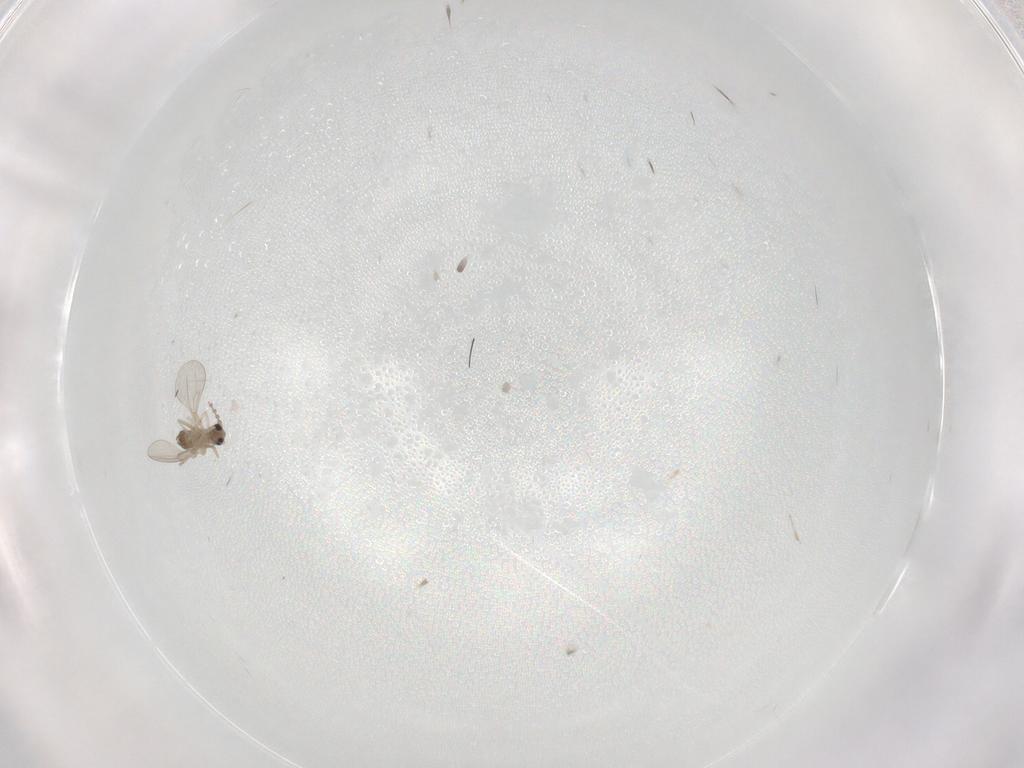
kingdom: Animalia
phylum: Arthropoda
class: Insecta
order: Diptera
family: Cecidomyiidae
